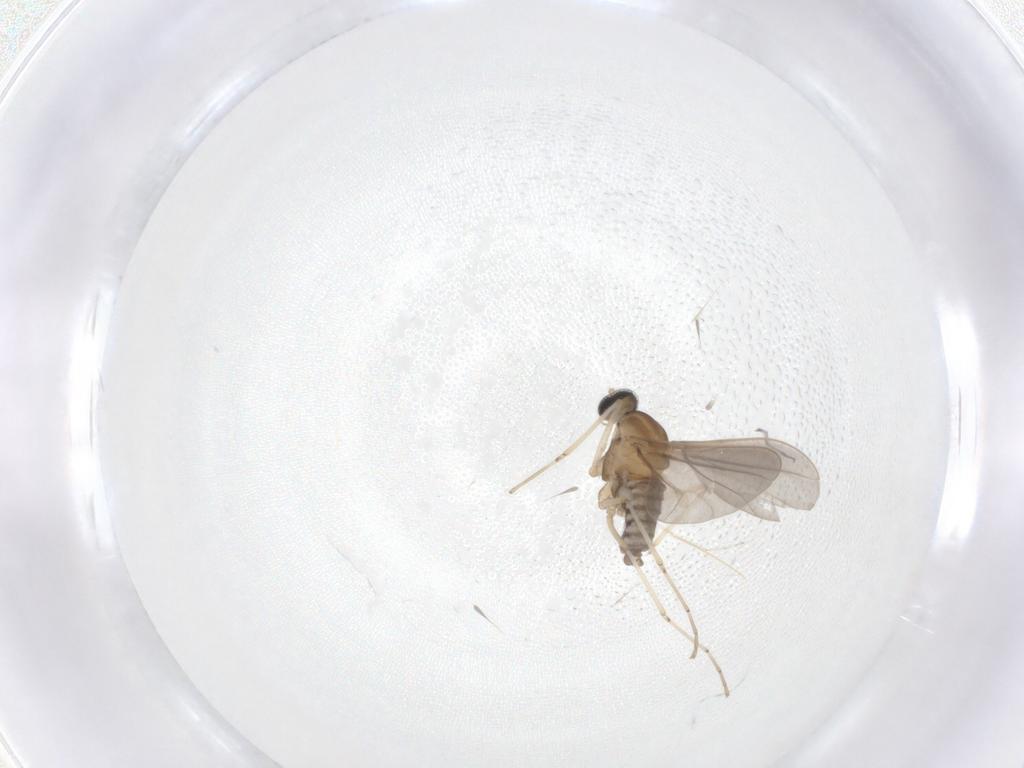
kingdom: Animalia
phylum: Arthropoda
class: Insecta
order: Diptera
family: Cecidomyiidae
